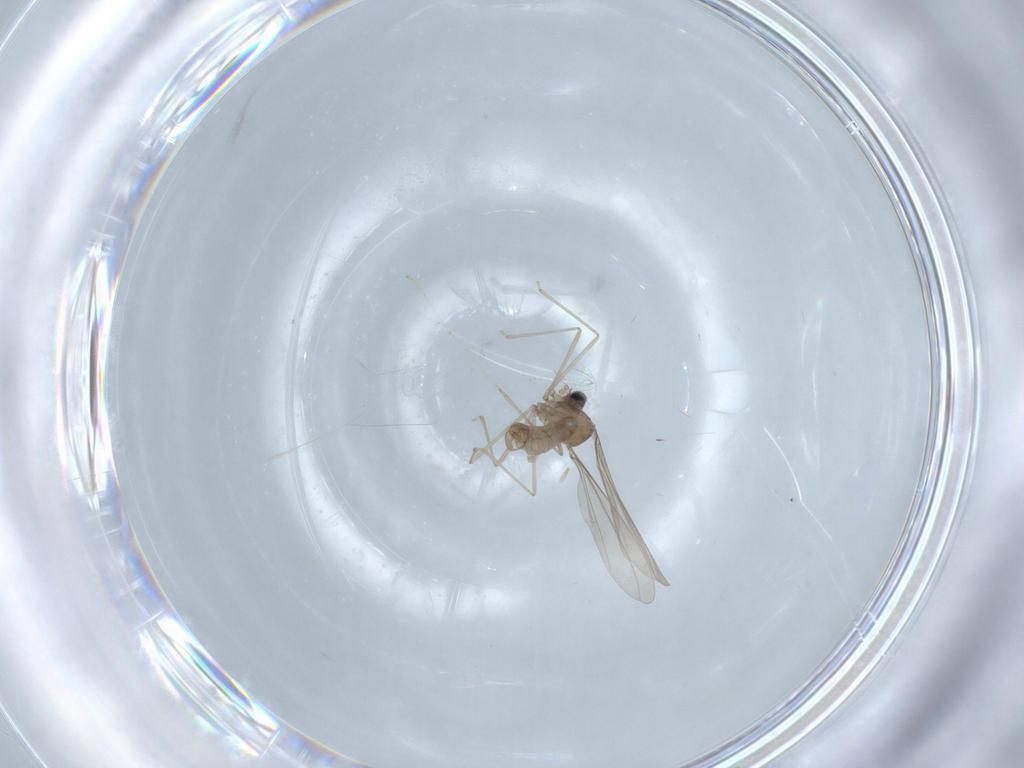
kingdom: Animalia
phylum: Arthropoda
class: Insecta
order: Diptera
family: Cecidomyiidae
